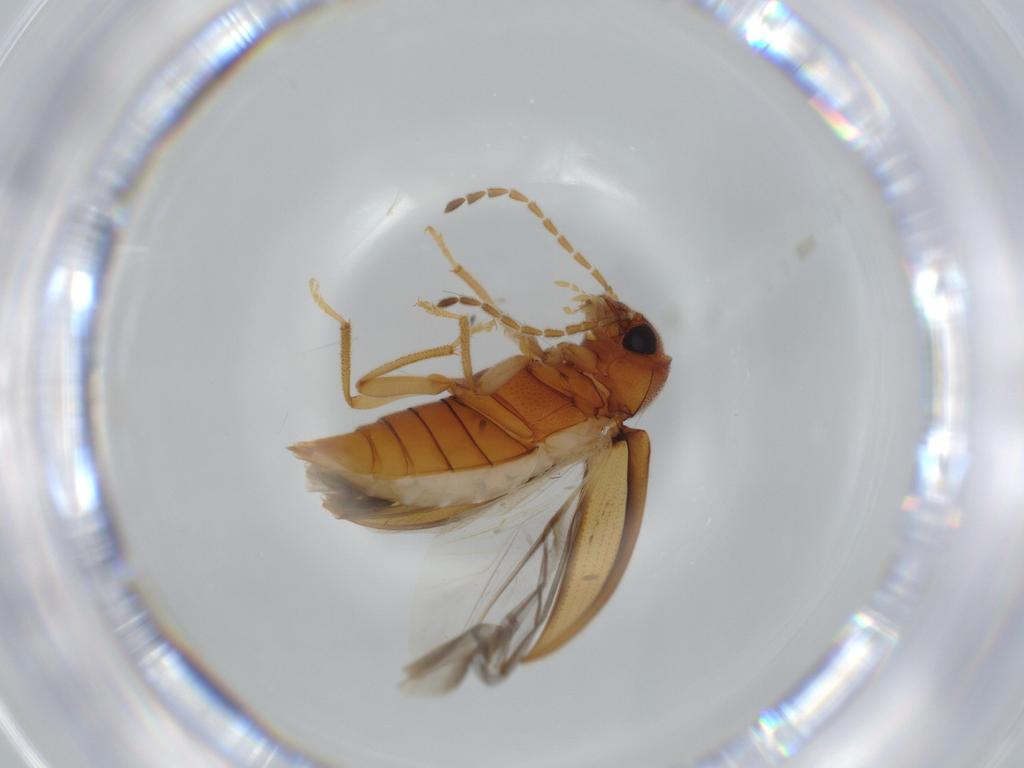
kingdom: Animalia
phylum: Arthropoda
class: Insecta
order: Coleoptera
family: Ptilodactylidae
